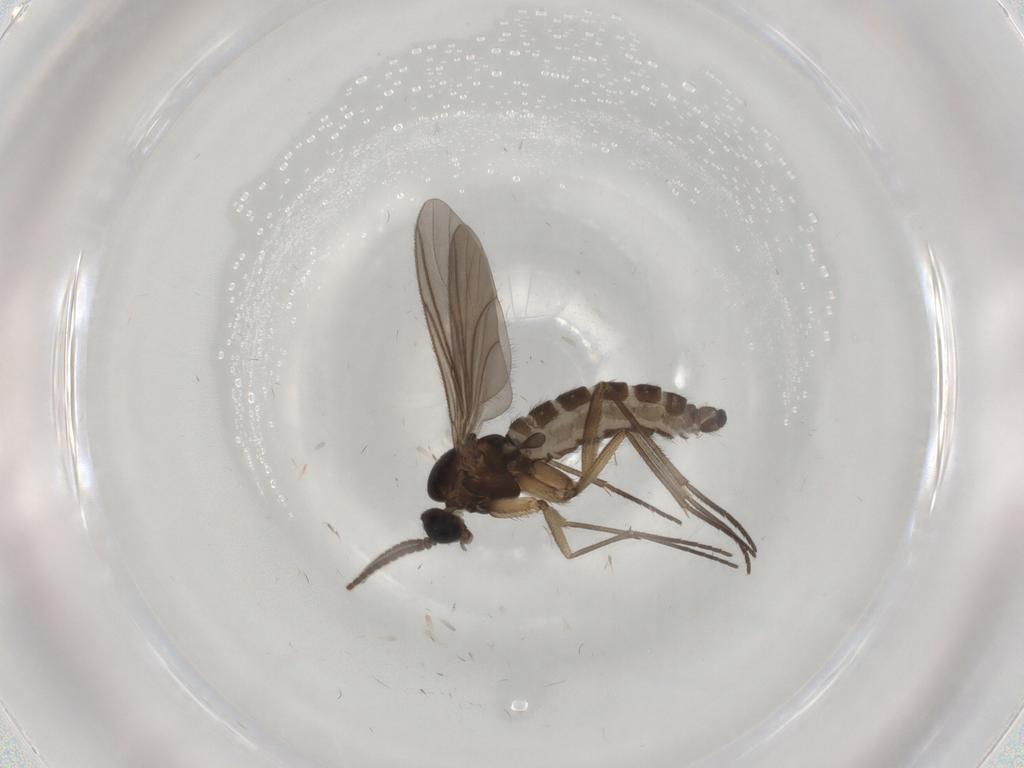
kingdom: Animalia
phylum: Arthropoda
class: Insecta
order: Diptera
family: Sciaridae
